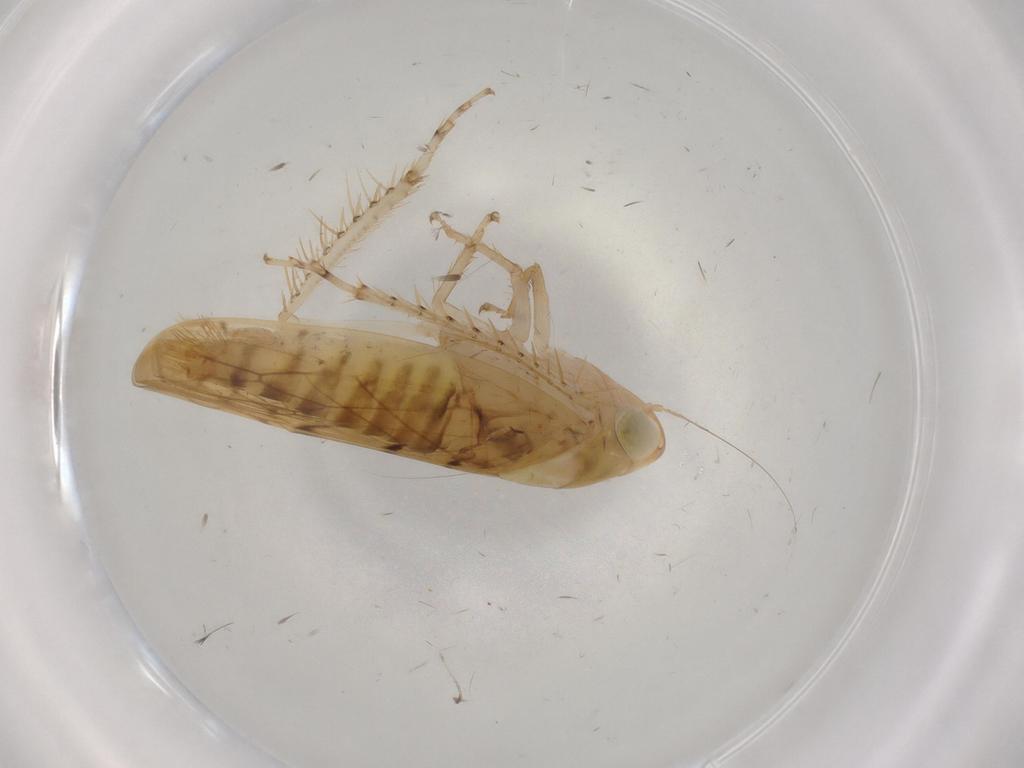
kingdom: Animalia
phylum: Arthropoda
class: Insecta
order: Hemiptera
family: Cicadellidae
